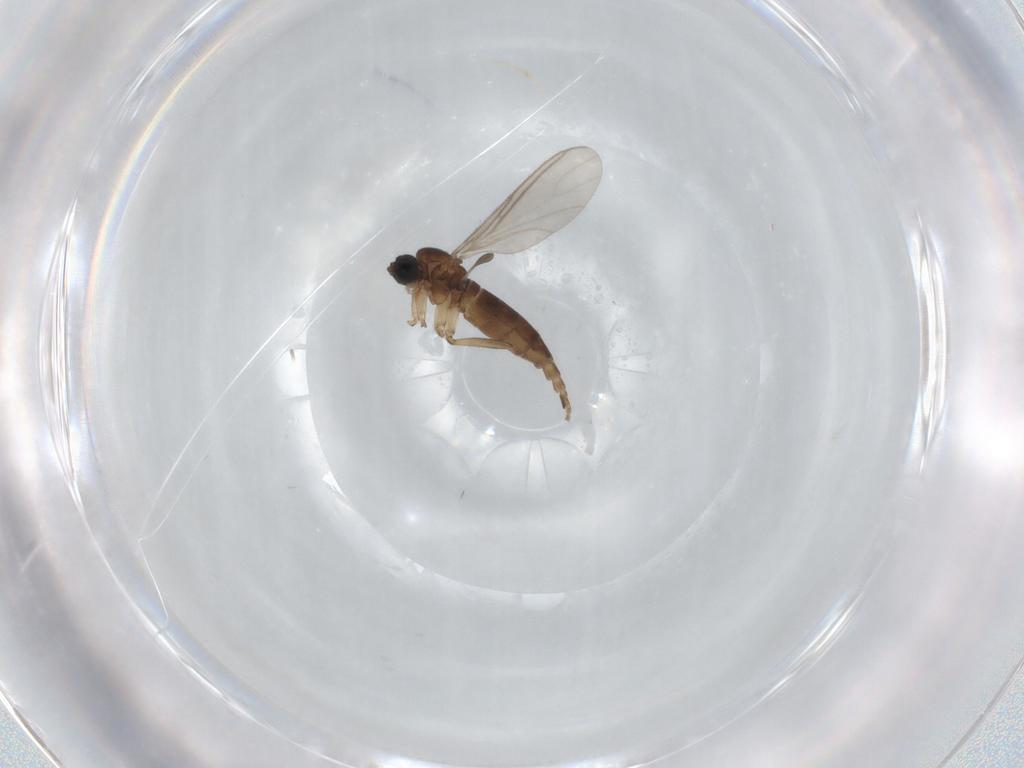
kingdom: Animalia
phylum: Arthropoda
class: Insecta
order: Diptera
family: Sciaridae
